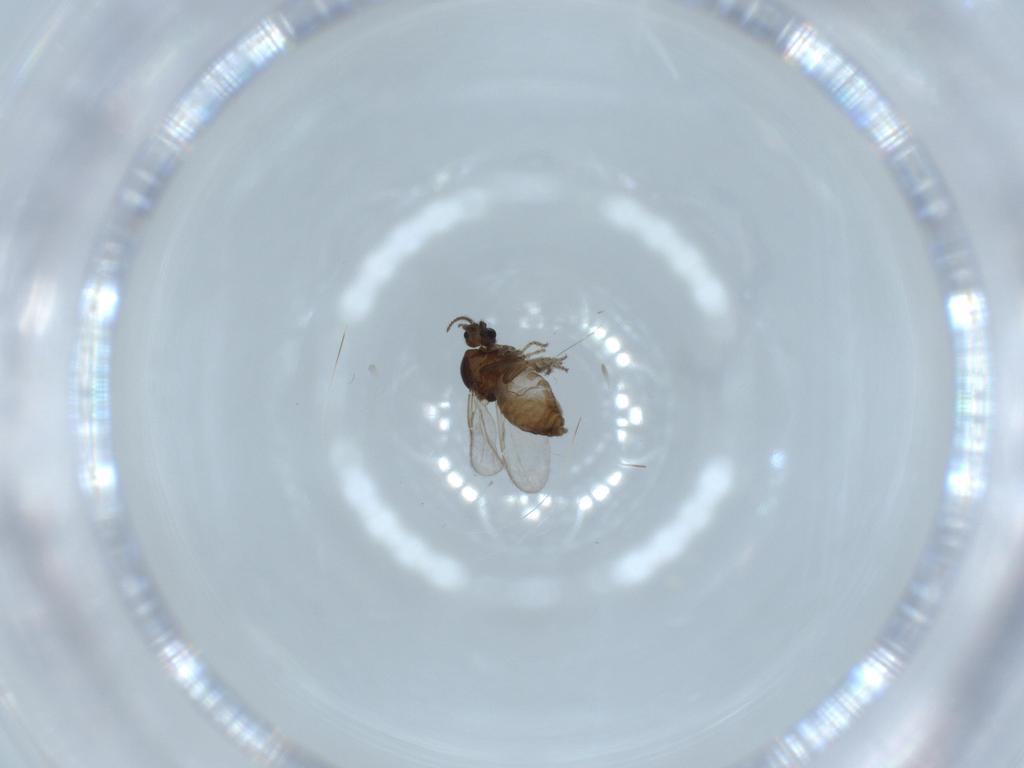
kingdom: Animalia
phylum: Arthropoda
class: Insecta
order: Diptera
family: Ceratopogonidae
